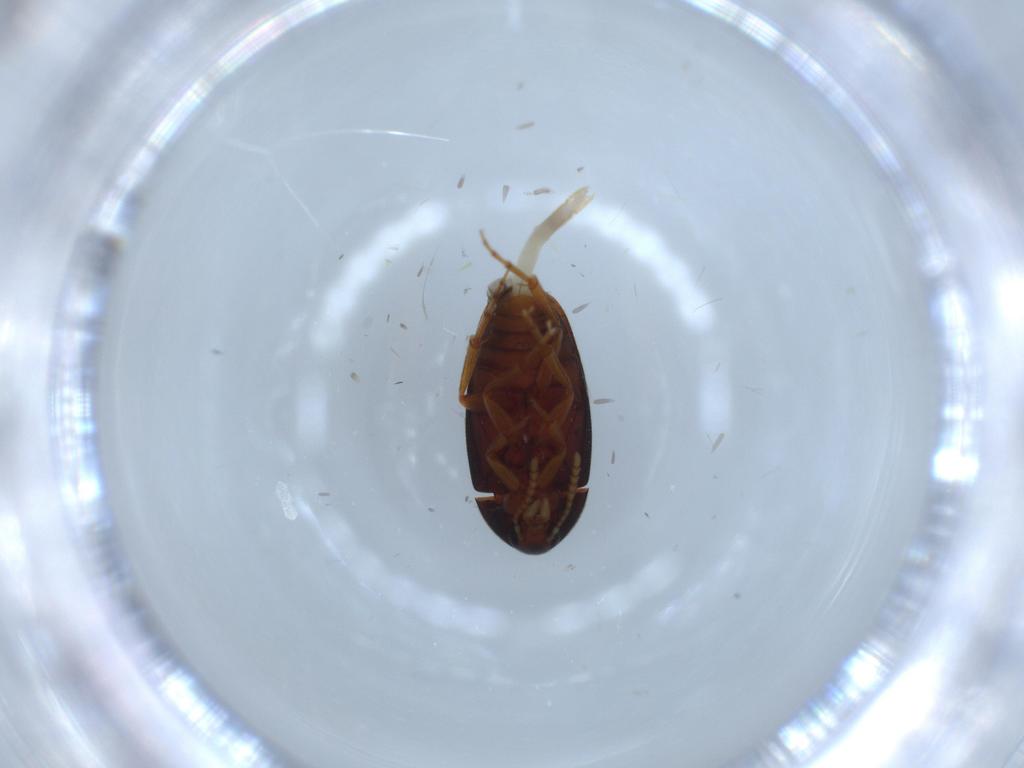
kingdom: Animalia
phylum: Arthropoda
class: Insecta
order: Coleoptera
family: Scraptiidae
